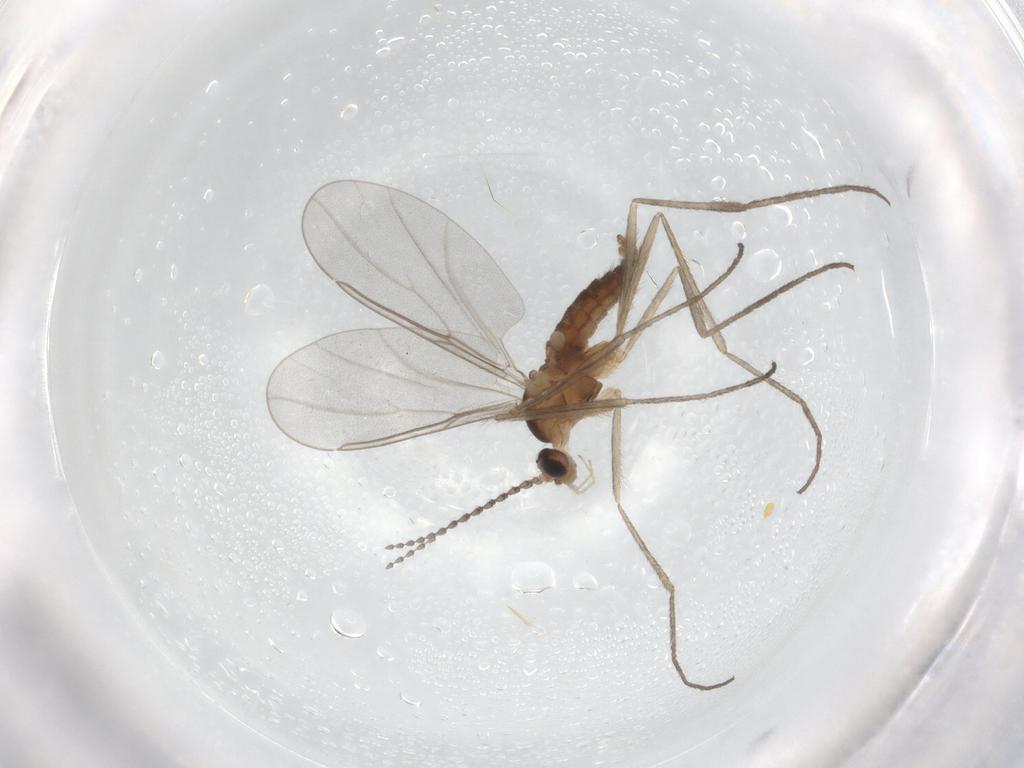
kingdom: Animalia
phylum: Arthropoda
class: Insecta
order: Diptera
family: Cecidomyiidae
